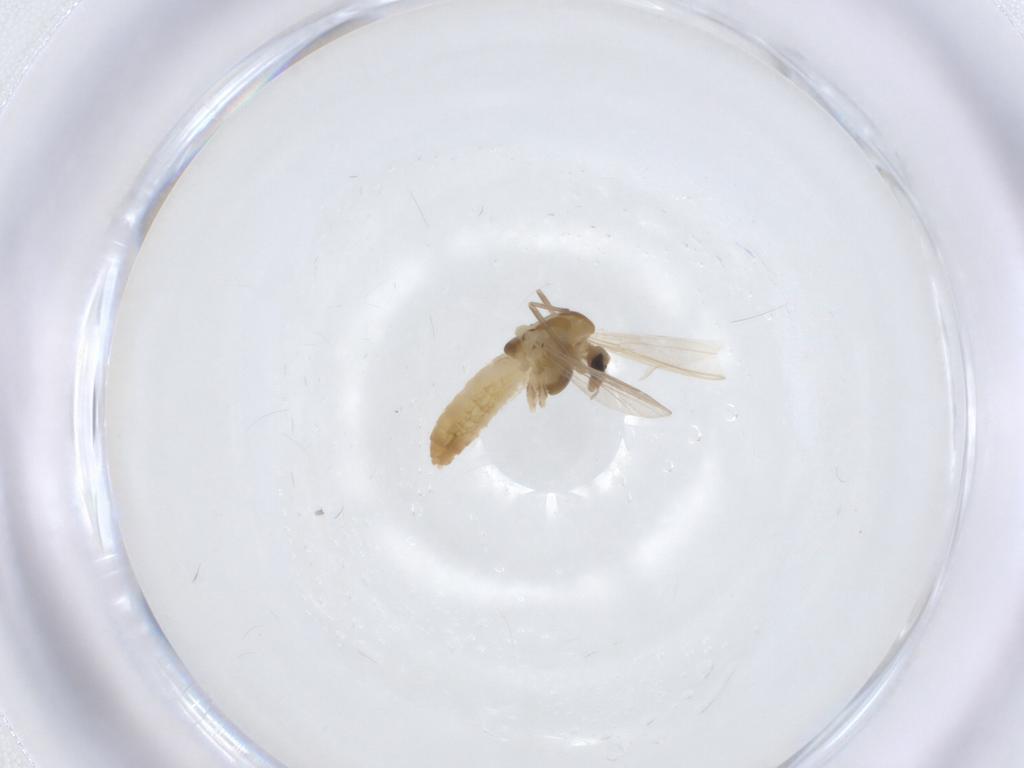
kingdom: Animalia
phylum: Arthropoda
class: Insecta
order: Diptera
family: Chironomidae
